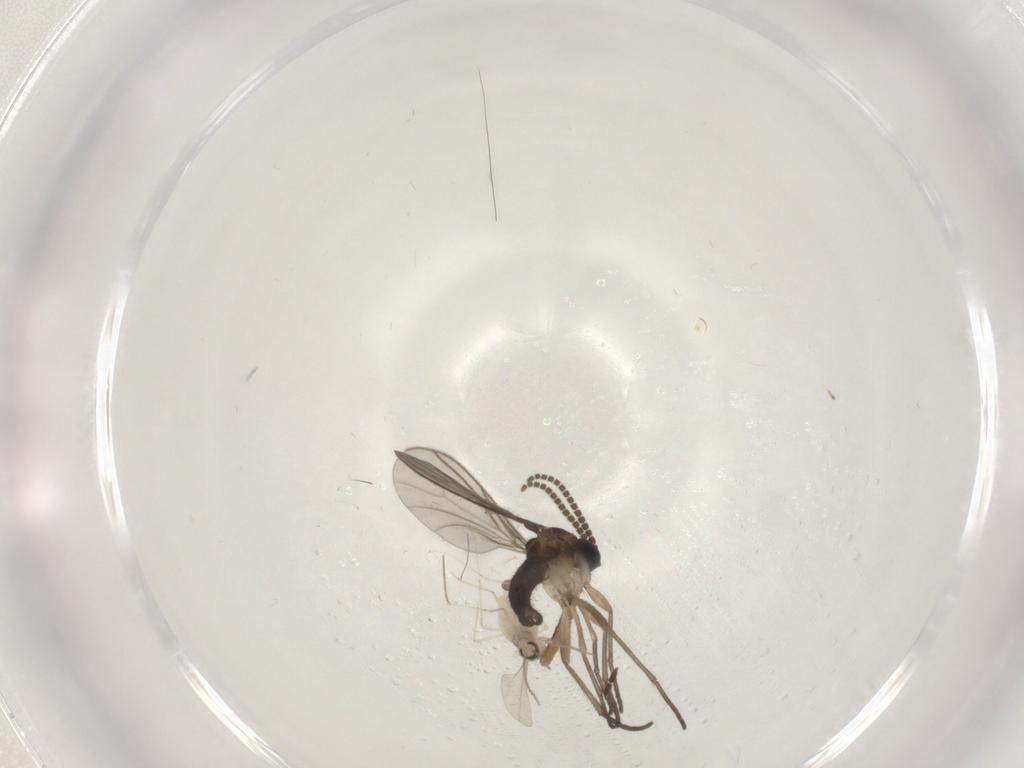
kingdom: Animalia
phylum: Arthropoda
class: Insecta
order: Diptera
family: Sciaridae
